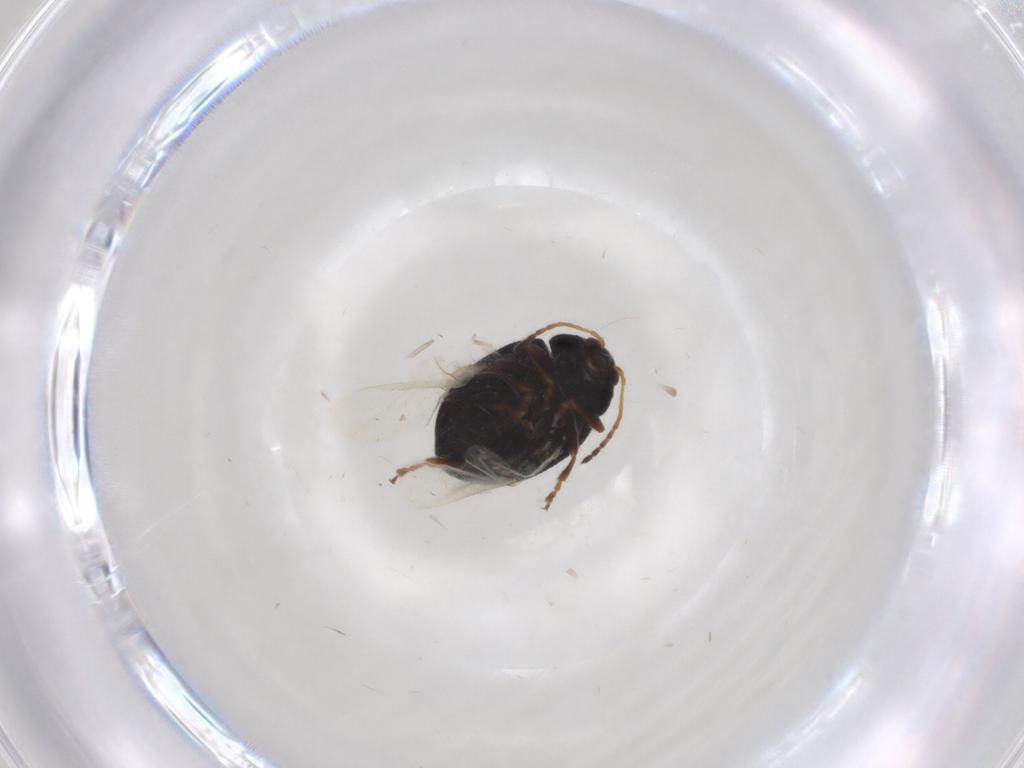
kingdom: Animalia
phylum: Arthropoda
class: Insecta
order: Coleoptera
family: Chrysomelidae
